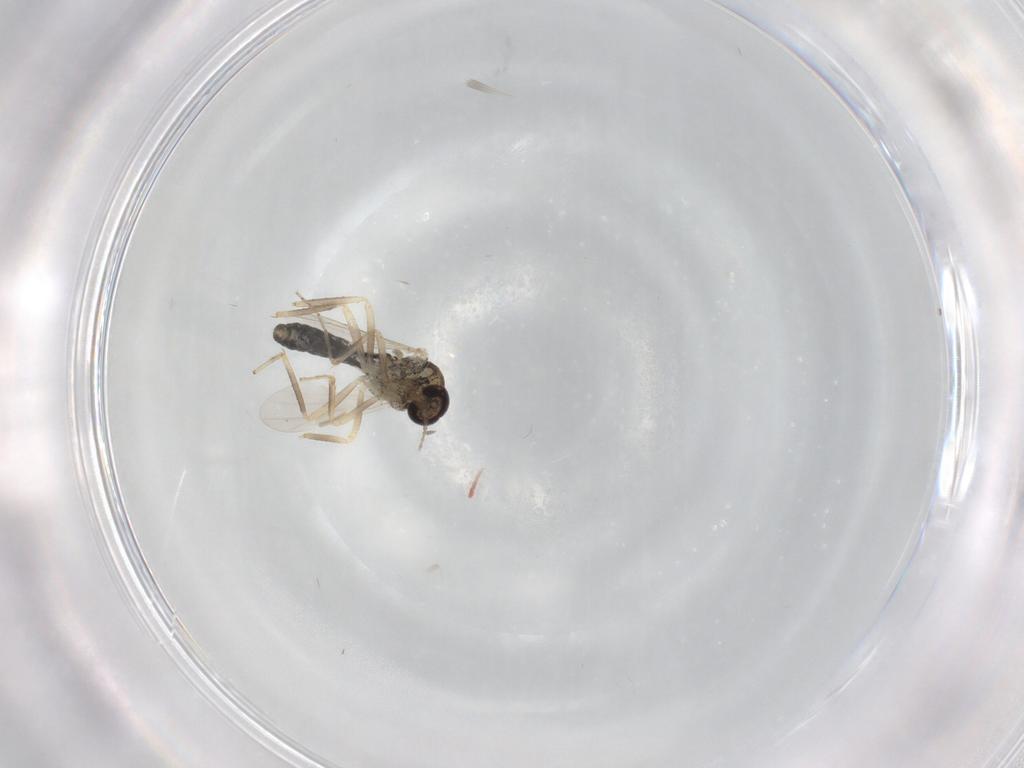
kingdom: Animalia
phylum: Arthropoda
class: Insecta
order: Diptera
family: Ceratopogonidae
